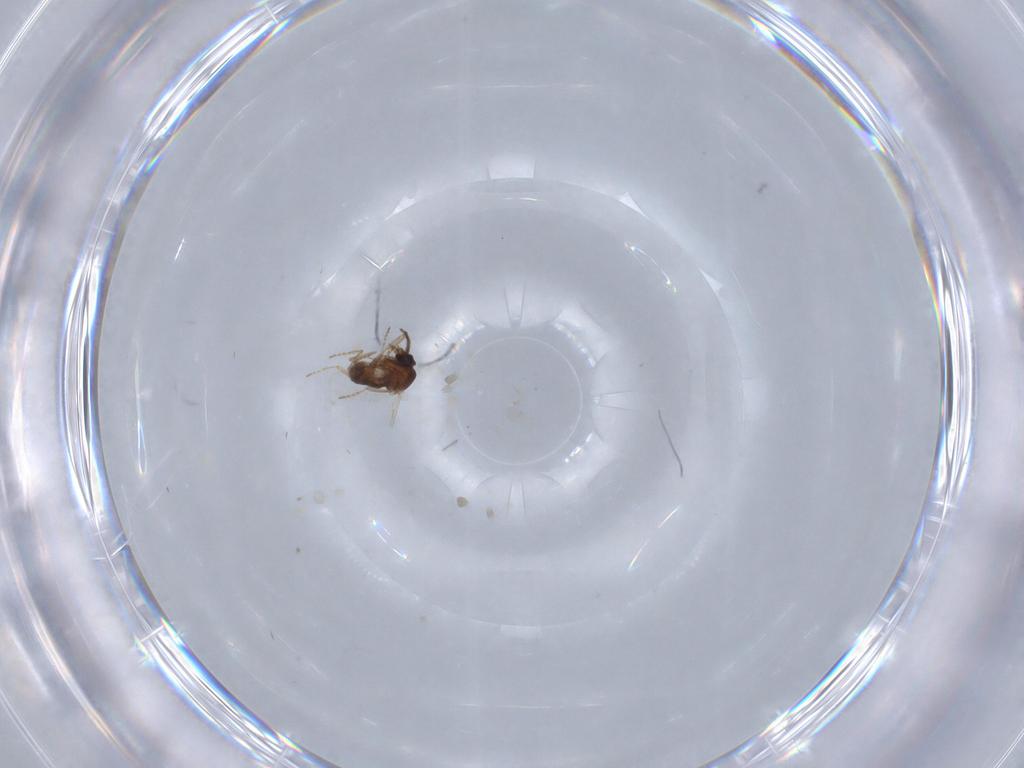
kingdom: Animalia
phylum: Arthropoda
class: Insecta
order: Diptera
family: Ceratopogonidae
